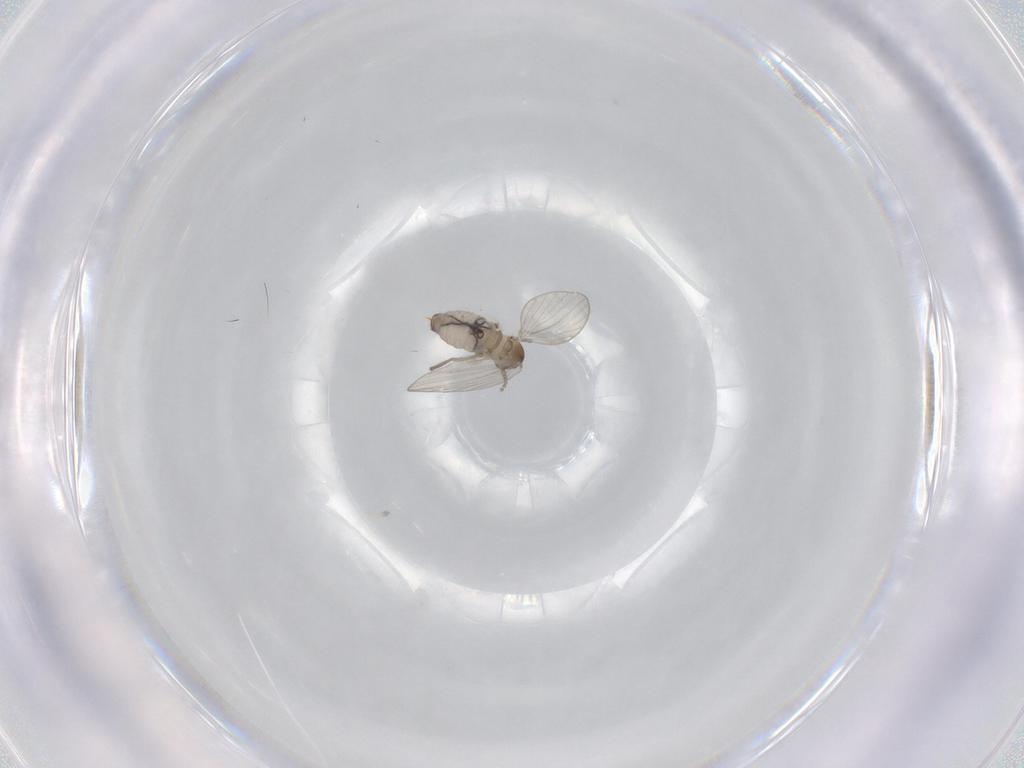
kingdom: Animalia
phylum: Arthropoda
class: Insecta
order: Diptera
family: Psychodidae
